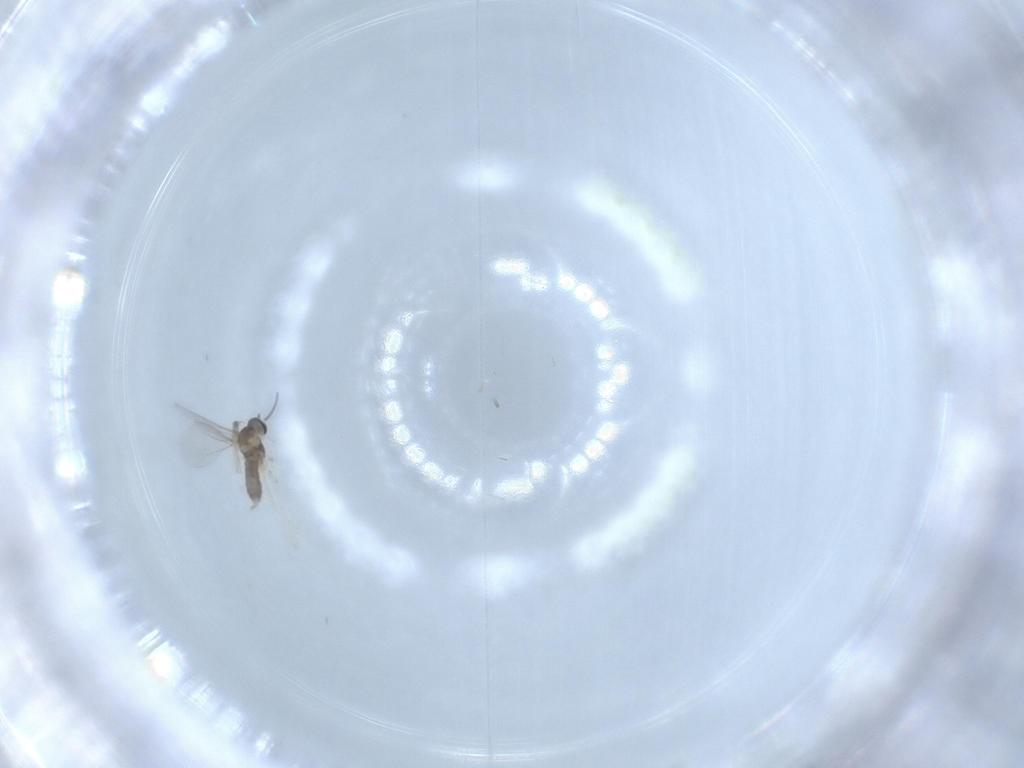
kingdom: Animalia
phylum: Arthropoda
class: Insecta
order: Diptera
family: Cecidomyiidae
